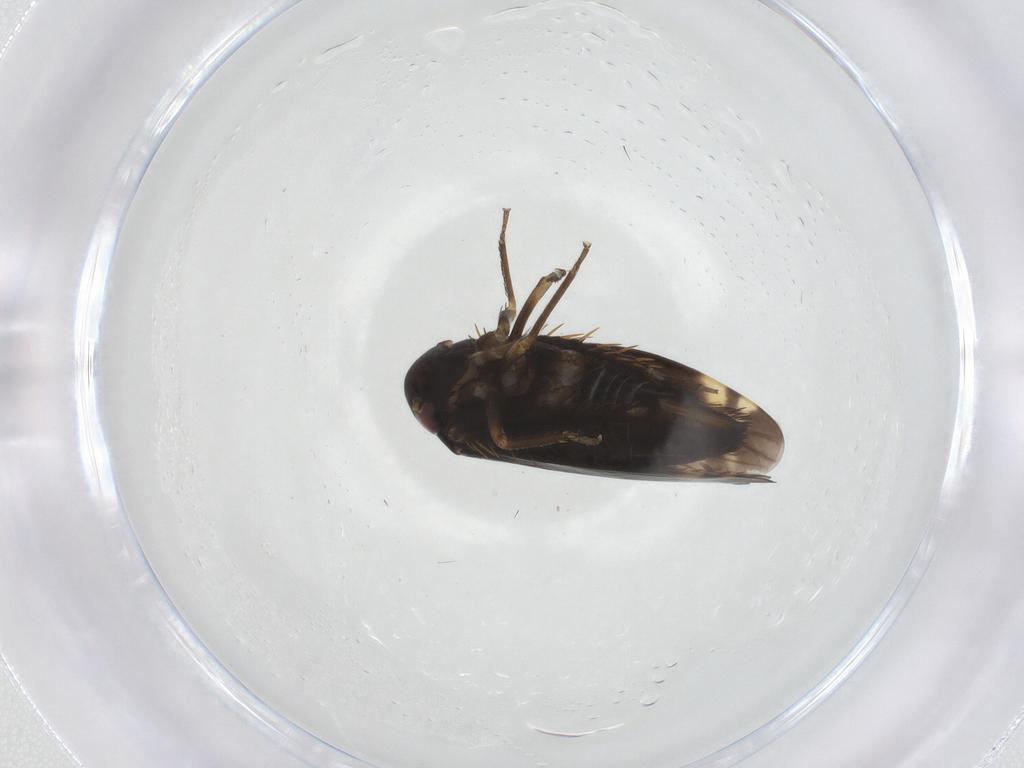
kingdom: Animalia
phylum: Arthropoda
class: Insecta
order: Hemiptera
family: Cicadellidae
